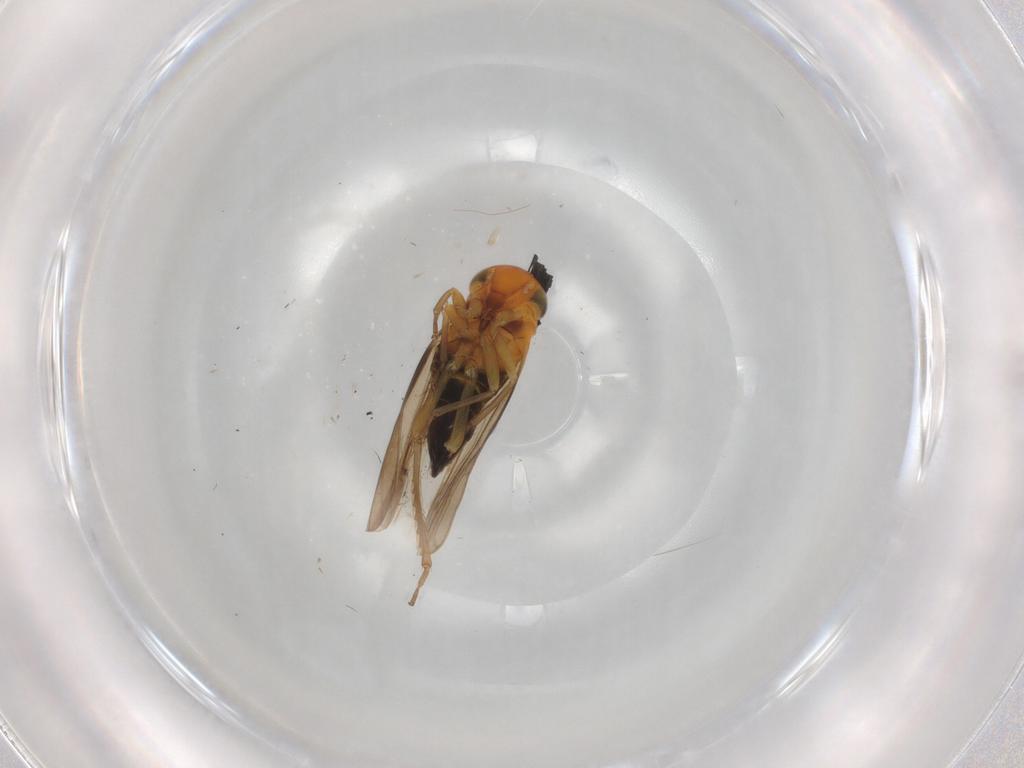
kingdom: Animalia
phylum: Arthropoda
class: Insecta
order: Hemiptera
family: Cicadellidae
